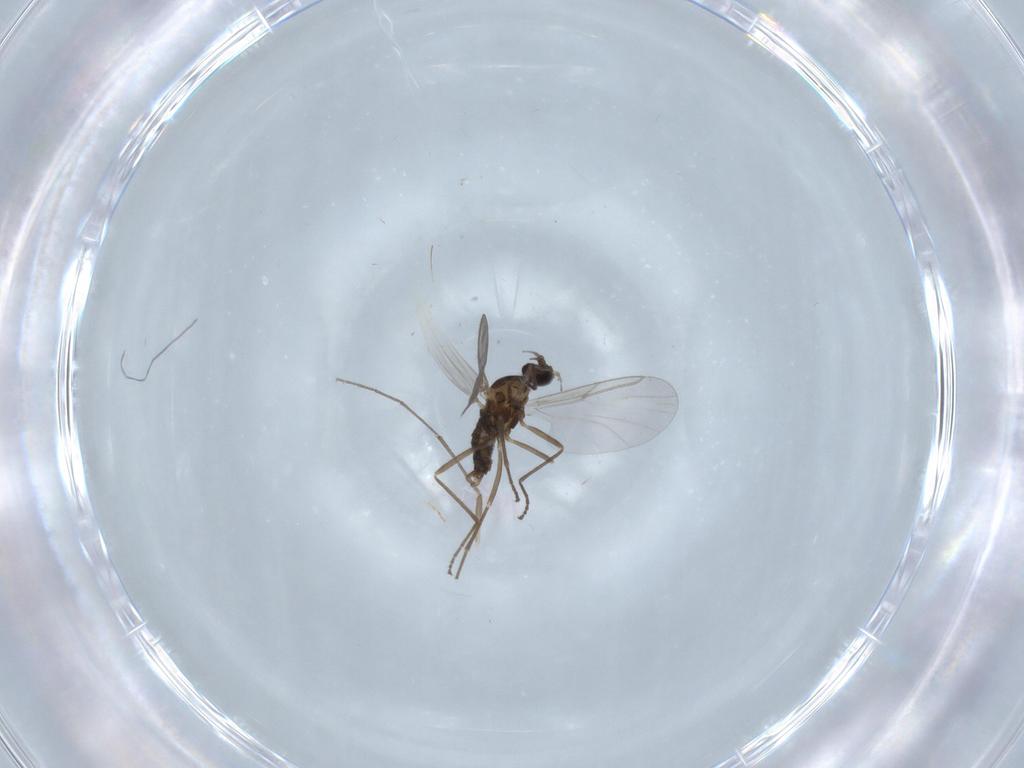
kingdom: Animalia
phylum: Arthropoda
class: Insecta
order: Diptera
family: Cecidomyiidae
